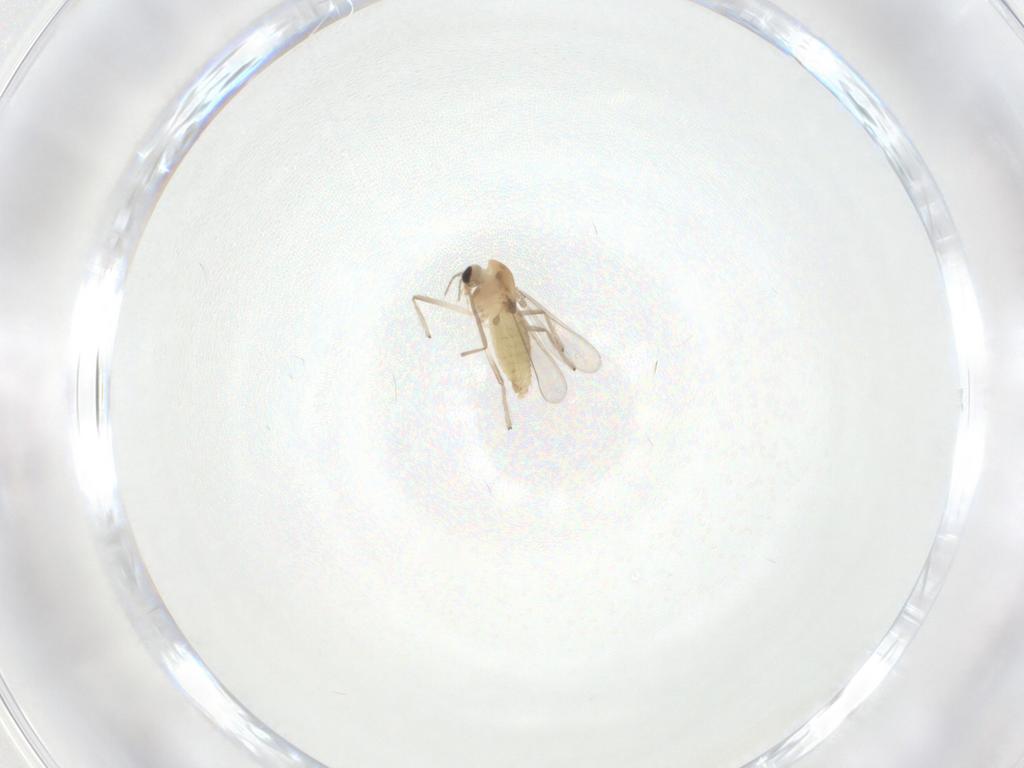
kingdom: Animalia
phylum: Arthropoda
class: Insecta
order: Diptera
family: Chironomidae
